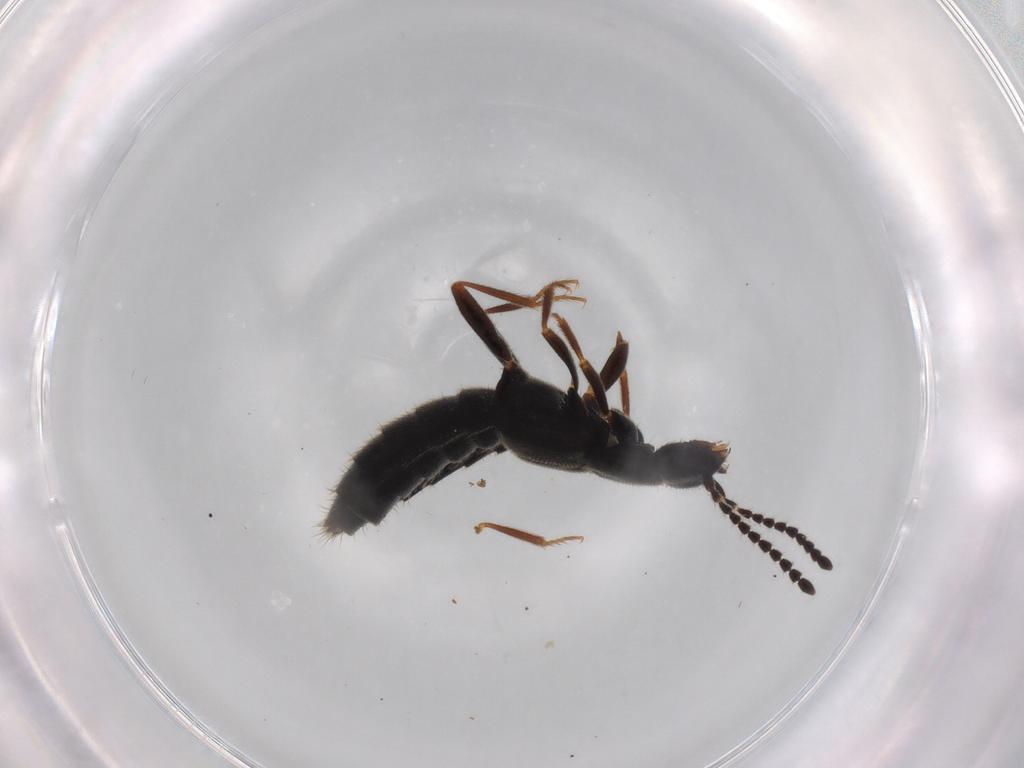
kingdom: Animalia
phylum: Arthropoda
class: Insecta
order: Coleoptera
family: Staphylinidae
